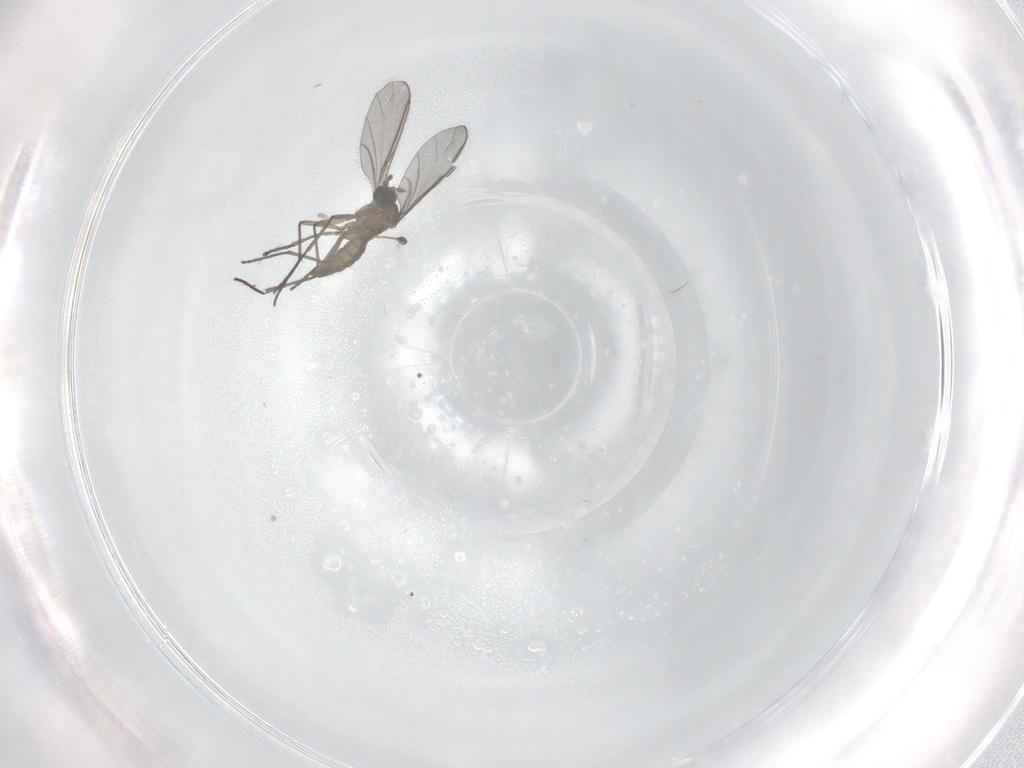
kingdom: Animalia
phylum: Arthropoda
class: Insecta
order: Diptera
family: Sciaridae
